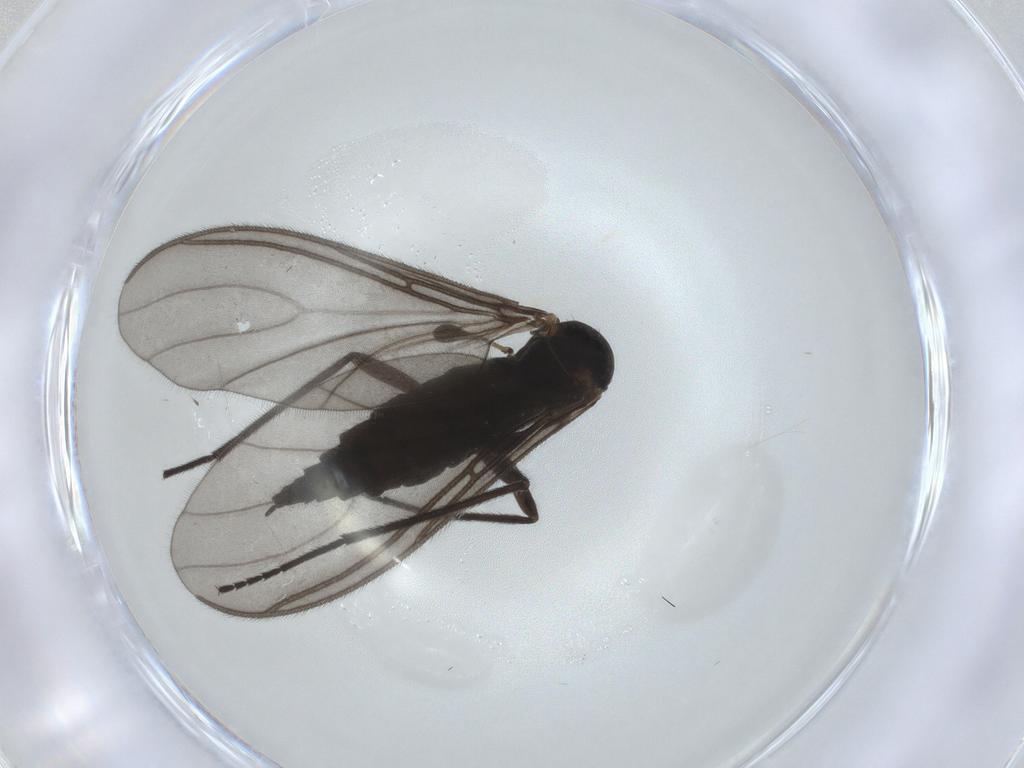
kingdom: Animalia
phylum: Arthropoda
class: Insecta
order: Diptera
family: Sciaridae
